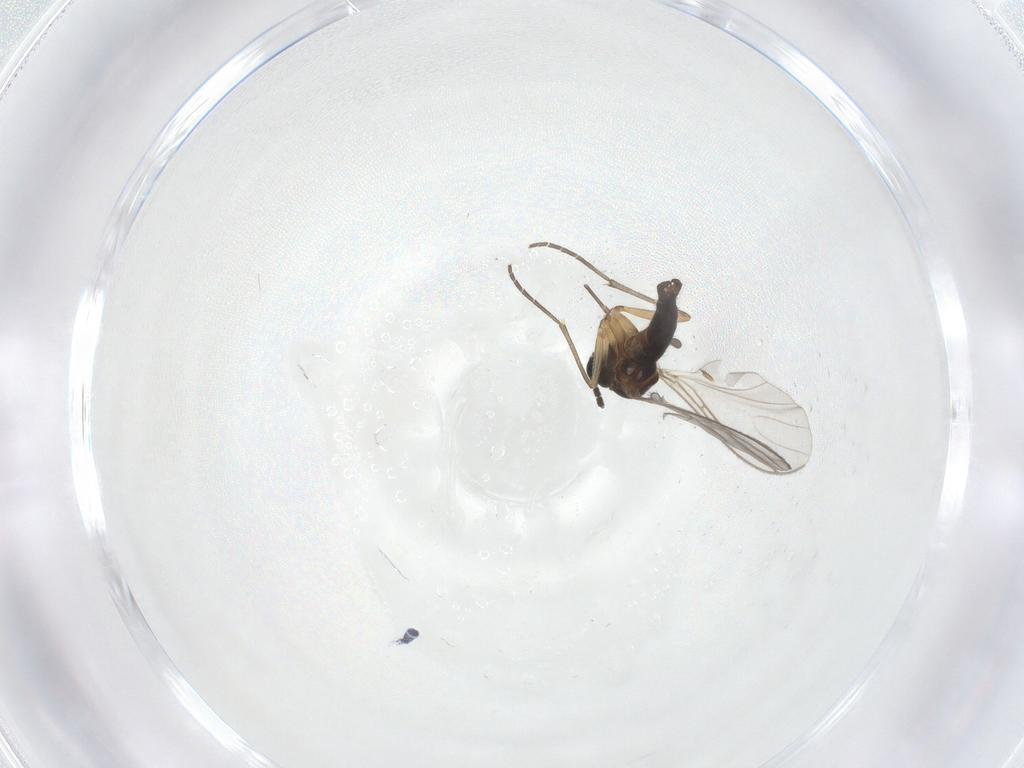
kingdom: Animalia
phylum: Arthropoda
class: Insecta
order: Diptera
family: Phoridae
